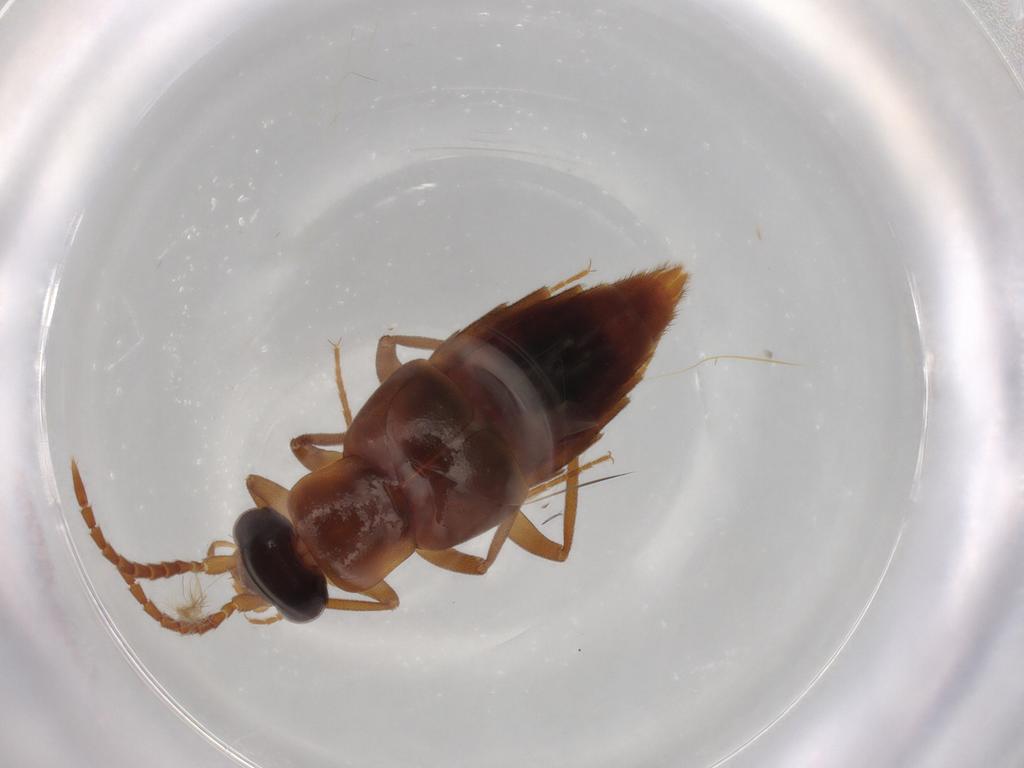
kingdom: Animalia
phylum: Arthropoda
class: Insecta
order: Coleoptera
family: Staphylinidae
